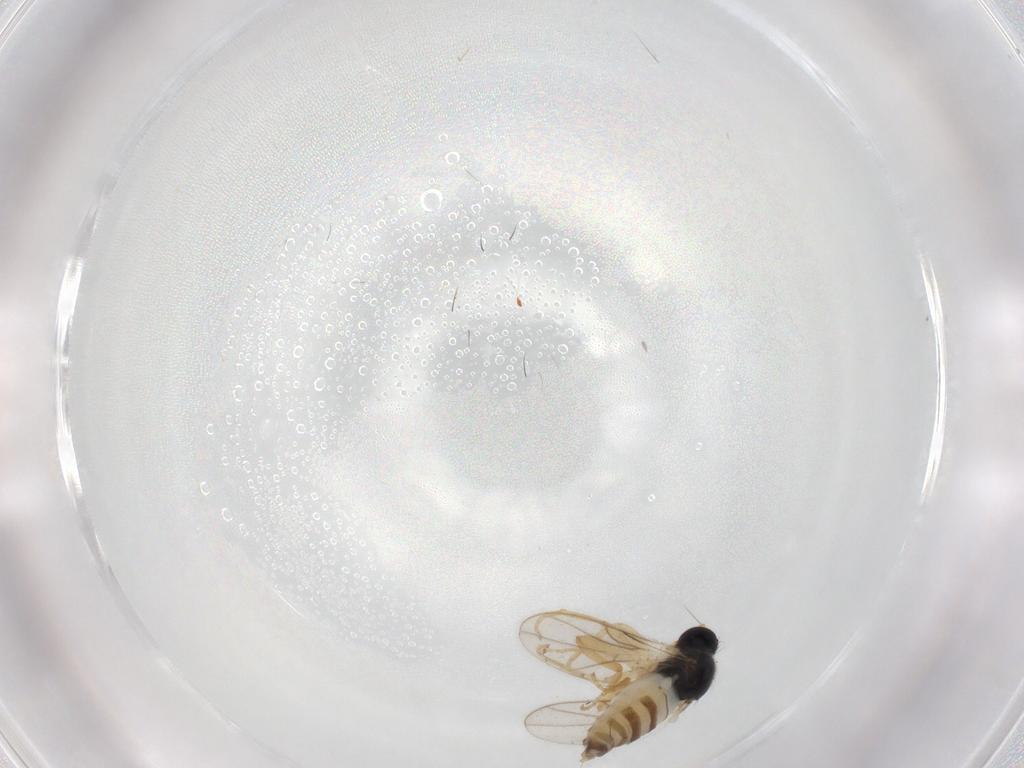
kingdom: Animalia
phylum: Arthropoda
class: Insecta
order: Diptera
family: Hybotidae
